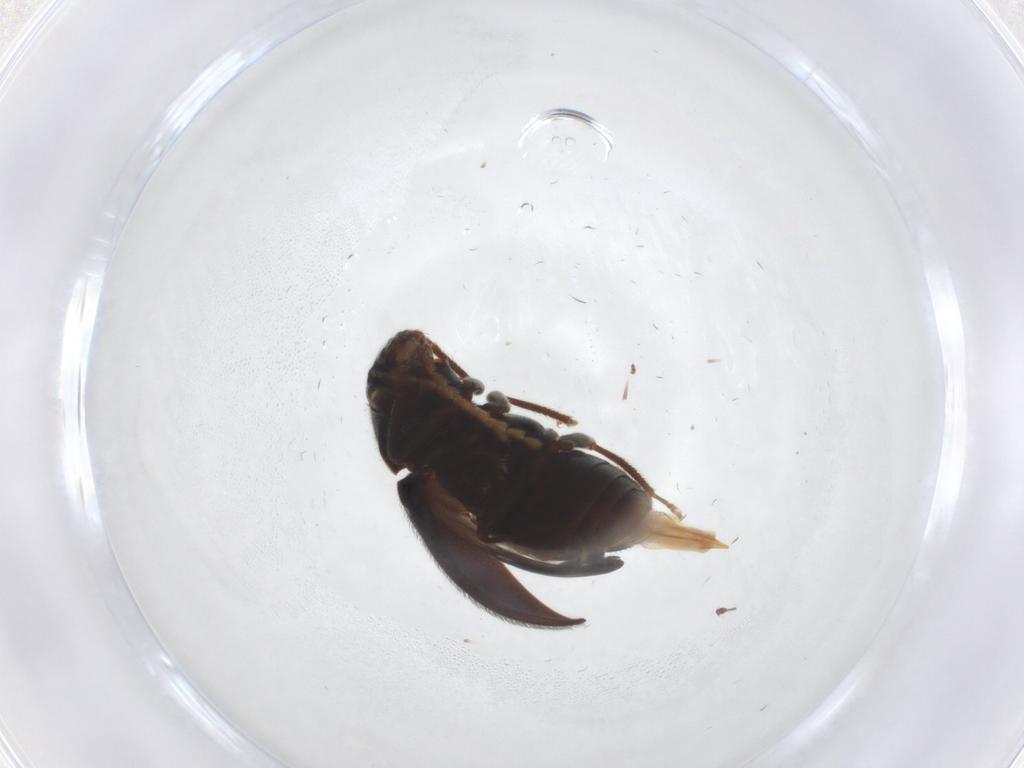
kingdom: Animalia
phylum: Arthropoda
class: Insecta
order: Coleoptera
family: Ptilodactylidae
